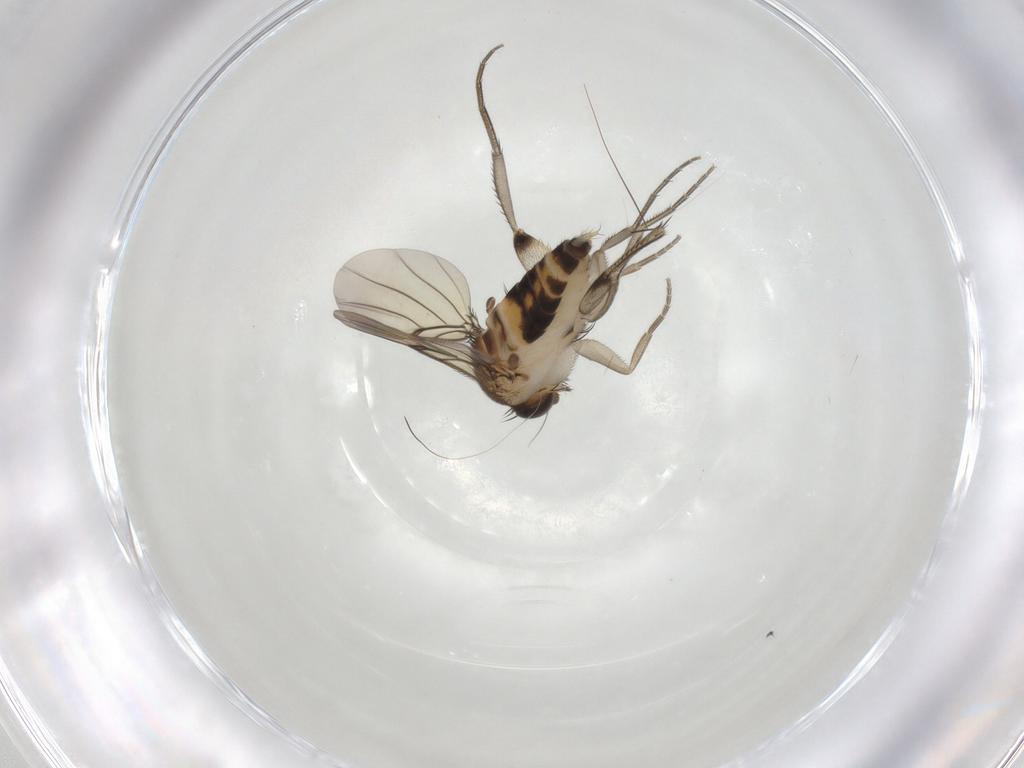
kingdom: Animalia
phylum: Arthropoda
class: Insecta
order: Diptera
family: Sciaridae
